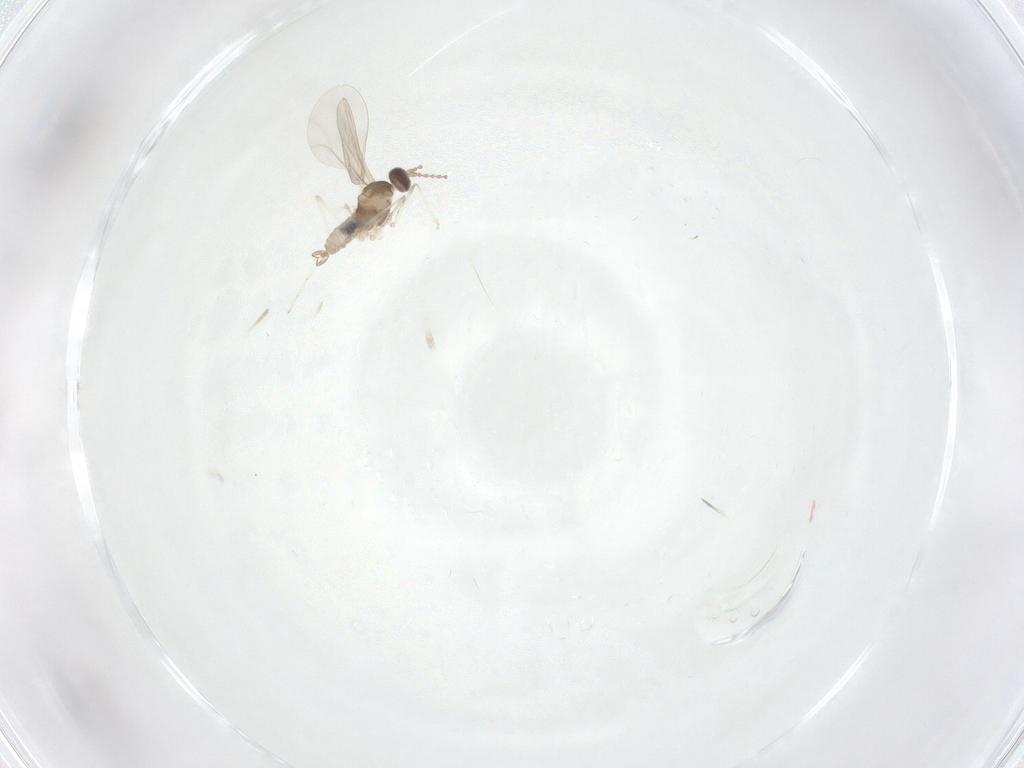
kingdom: Animalia
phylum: Arthropoda
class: Insecta
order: Diptera
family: Cecidomyiidae
